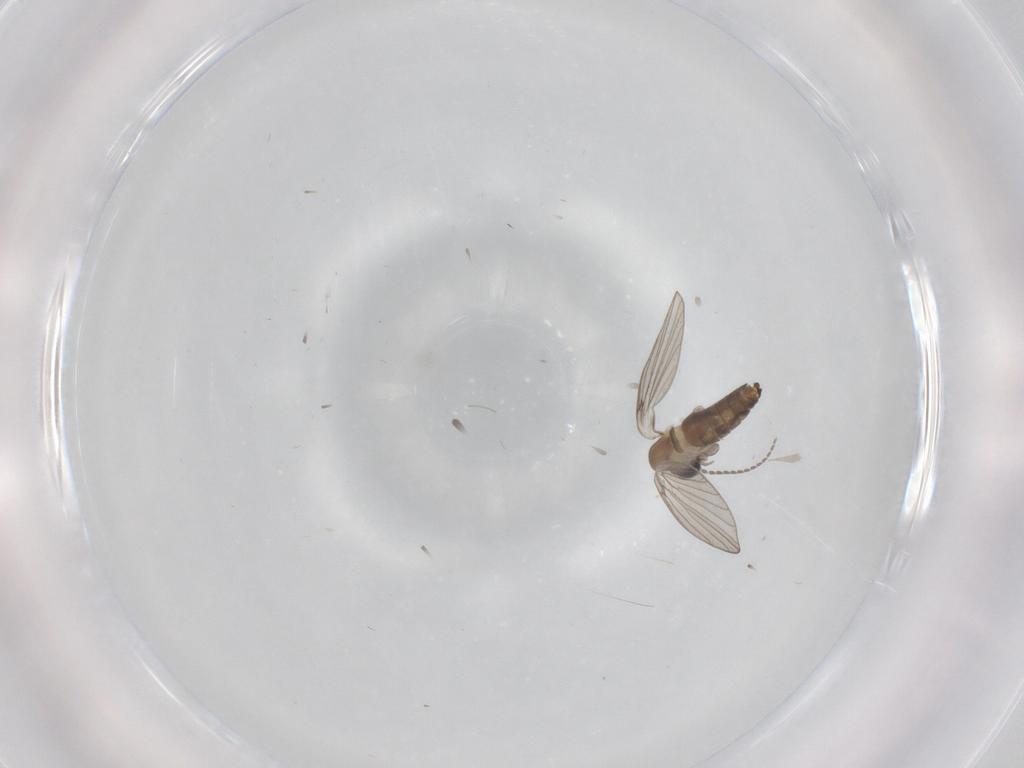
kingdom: Animalia
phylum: Arthropoda
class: Insecta
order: Diptera
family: Psychodidae
